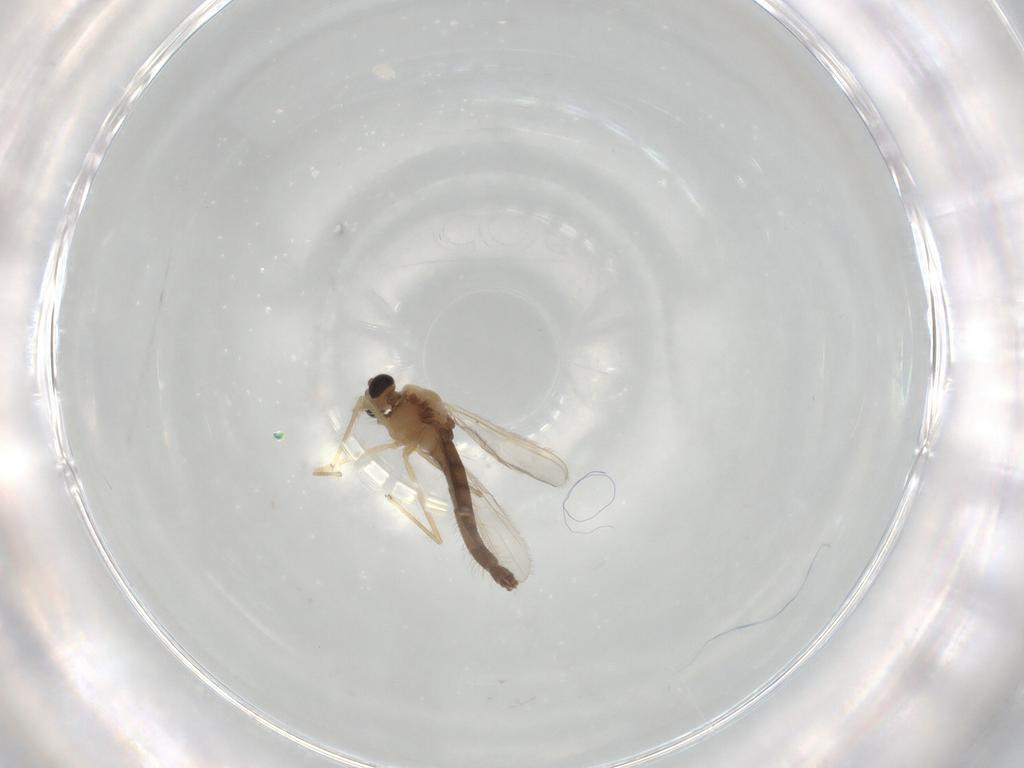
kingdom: Animalia
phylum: Arthropoda
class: Insecta
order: Diptera
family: Chironomidae
